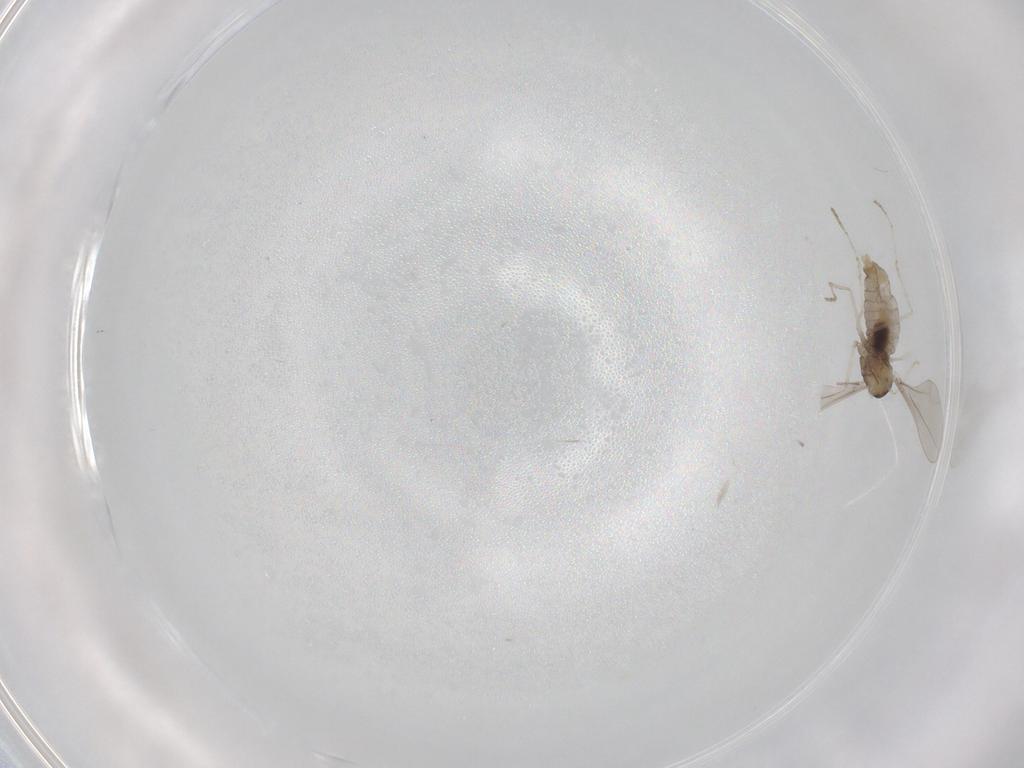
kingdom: Animalia
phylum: Arthropoda
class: Insecta
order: Diptera
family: Cecidomyiidae
